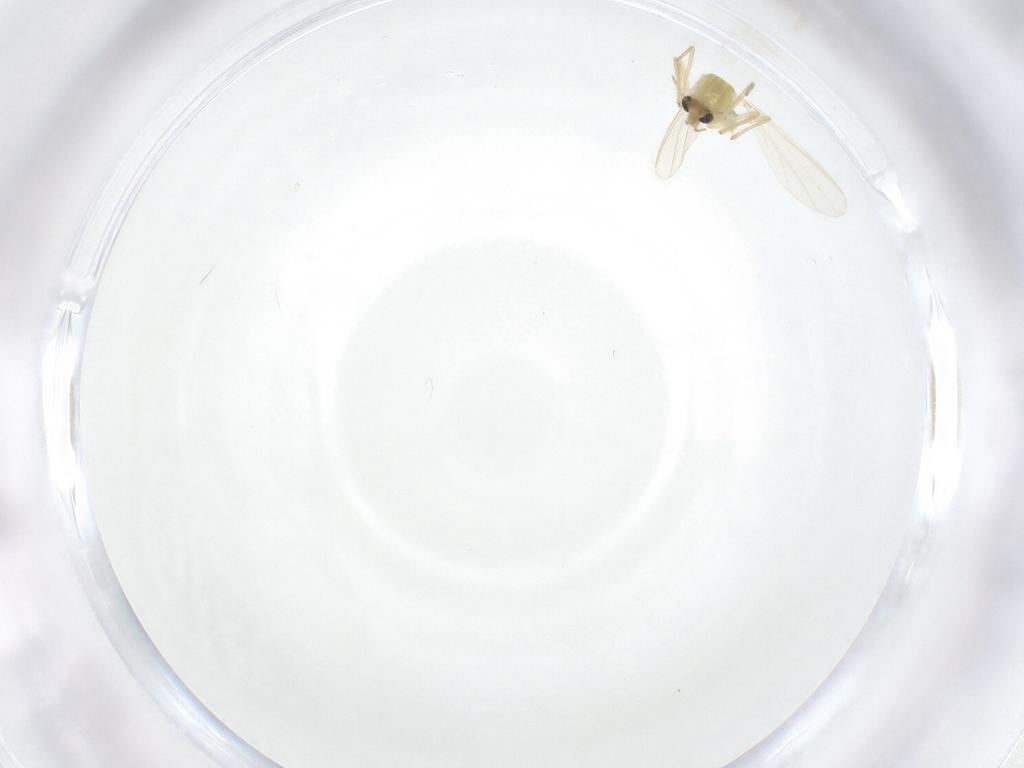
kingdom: Animalia
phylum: Arthropoda
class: Insecta
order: Diptera
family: Chironomidae
